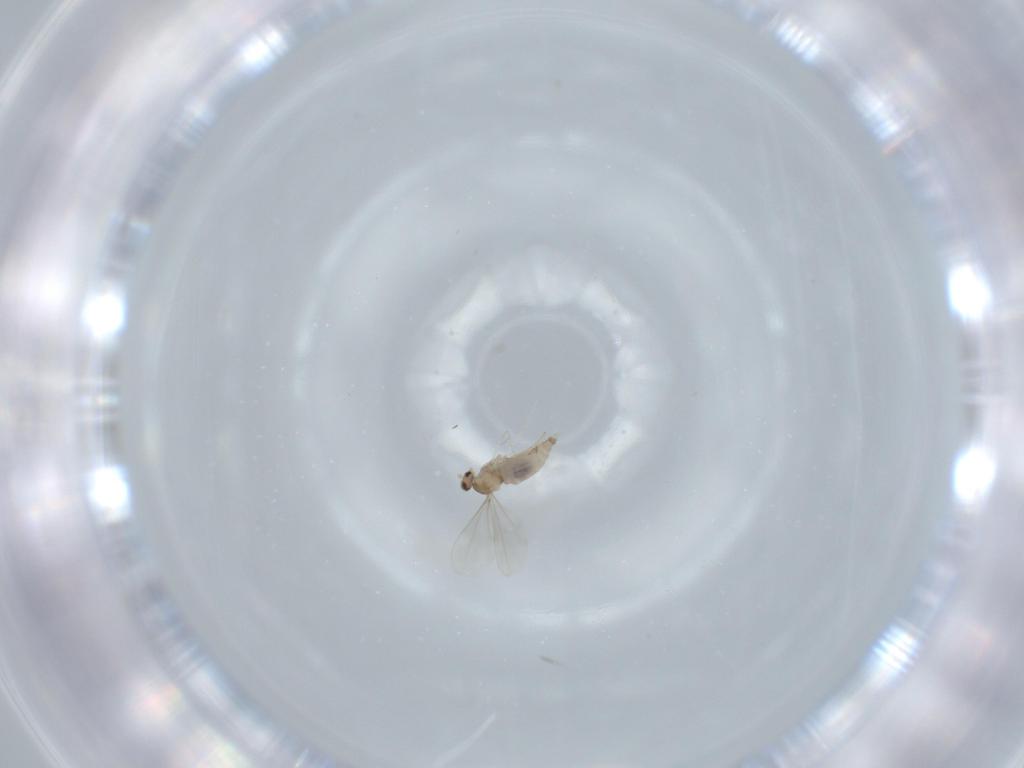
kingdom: Animalia
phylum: Arthropoda
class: Insecta
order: Diptera
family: Cecidomyiidae
